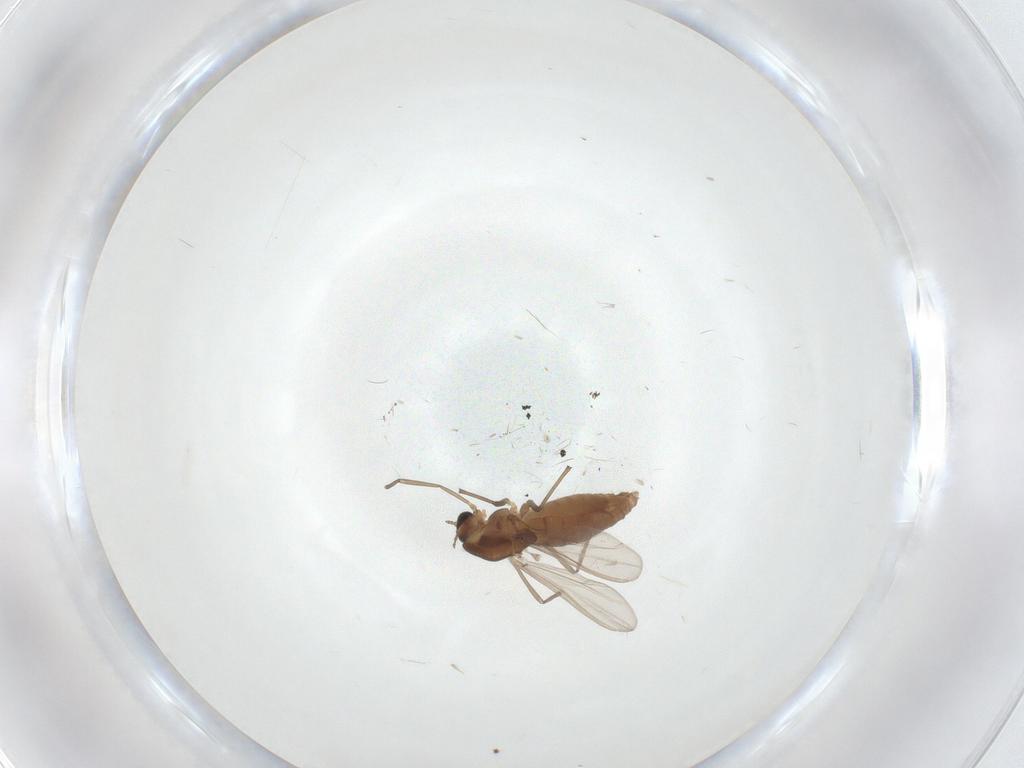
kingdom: Animalia
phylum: Arthropoda
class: Insecta
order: Diptera
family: Chironomidae
